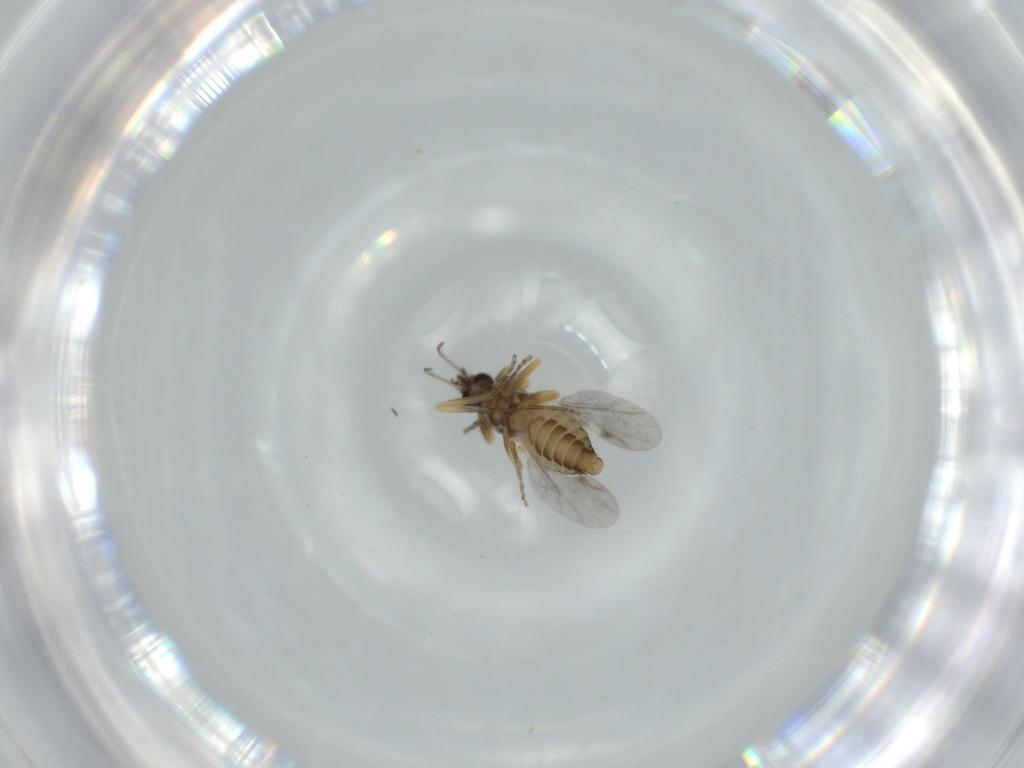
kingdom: Animalia
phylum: Arthropoda
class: Insecta
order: Diptera
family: Ceratopogonidae
